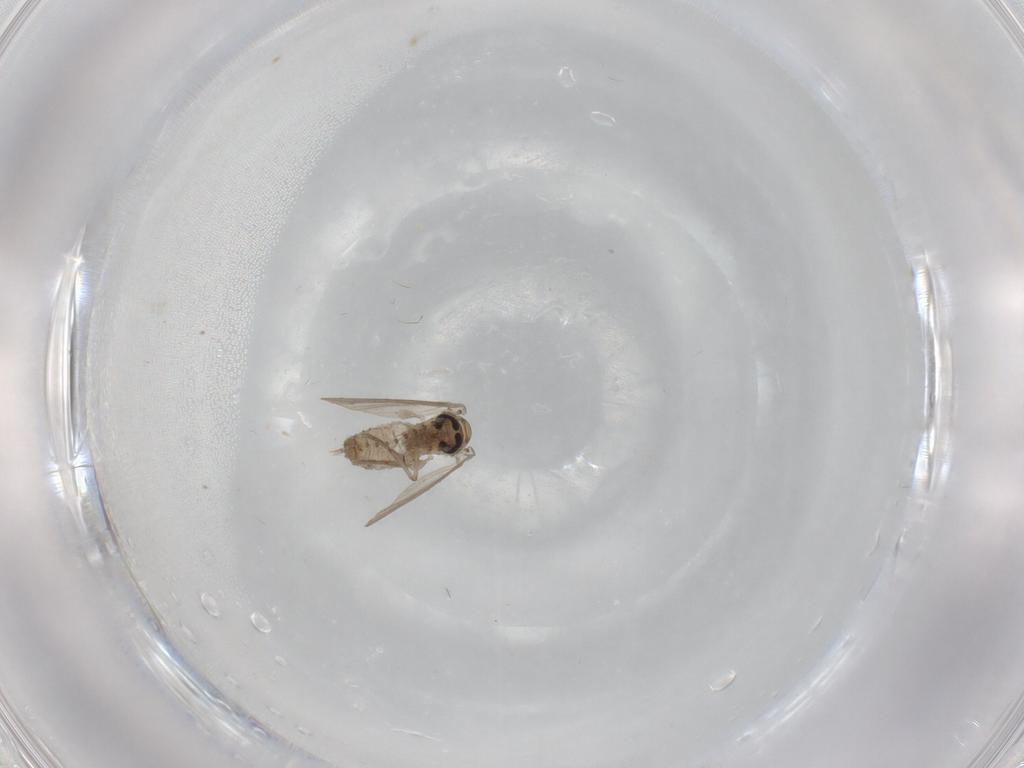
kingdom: Animalia
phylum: Arthropoda
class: Insecta
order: Diptera
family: Psychodidae
